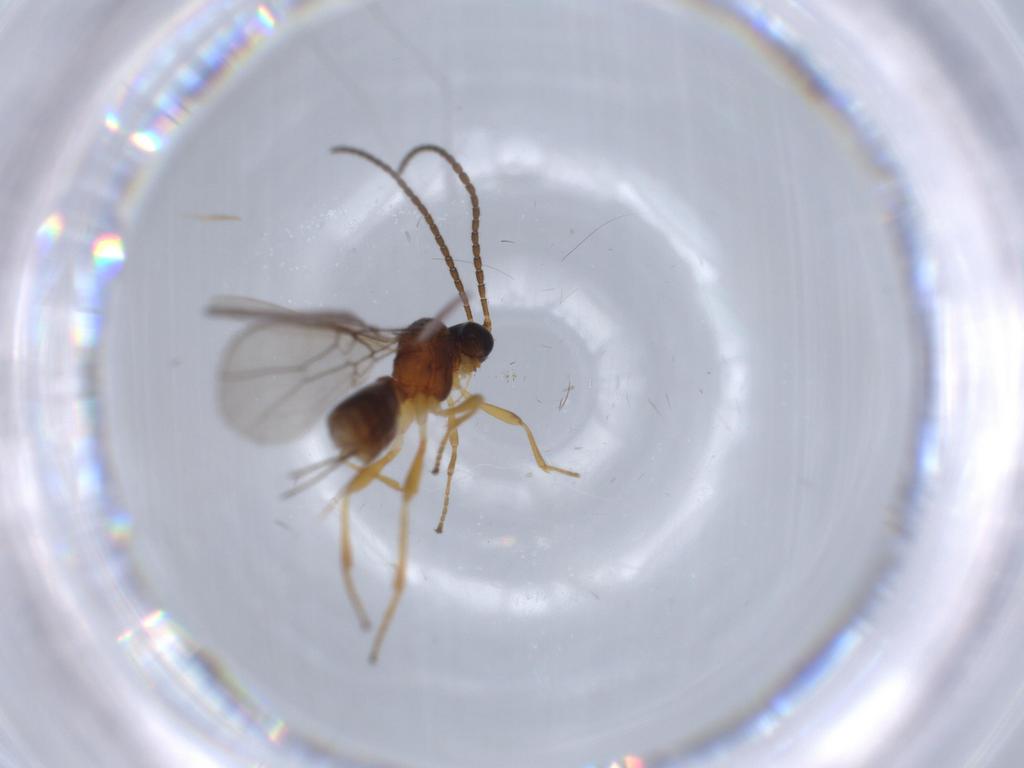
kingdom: Animalia
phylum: Arthropoda
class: Insecta
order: Hymenoptera
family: Braconidae
